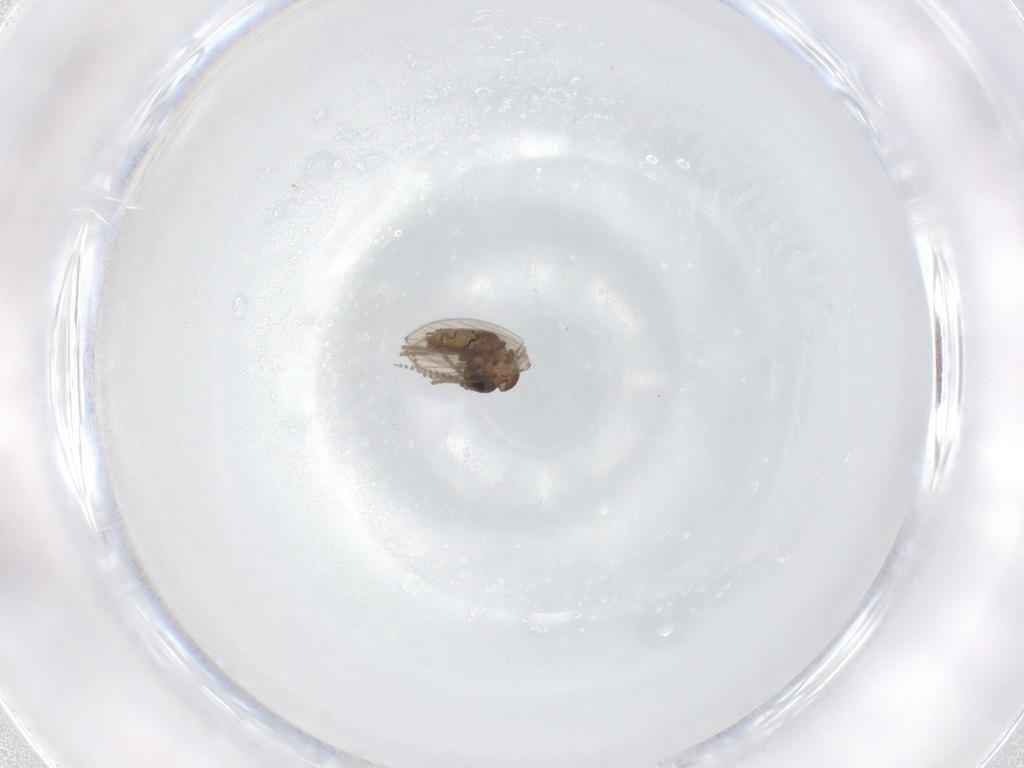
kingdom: Animalia
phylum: Arthropoda
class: Insecta
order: Diptera
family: Psychodidae
